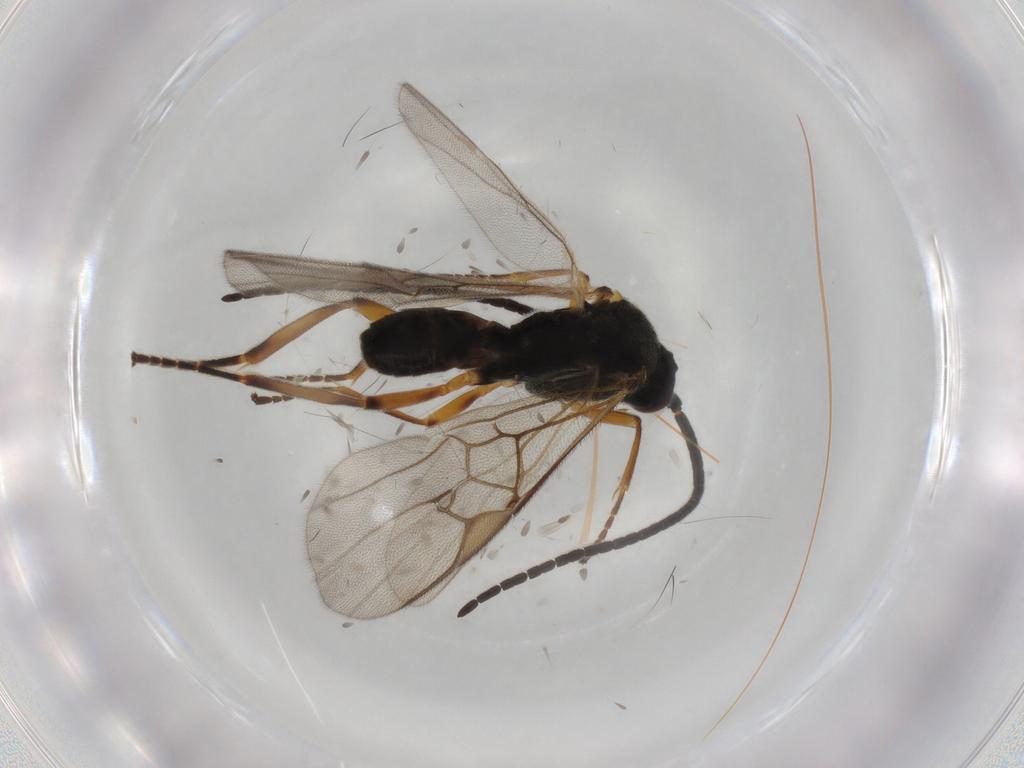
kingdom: Animalia
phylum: Arthropoda
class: Insecta
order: Hymenoptera
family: Braconidae
